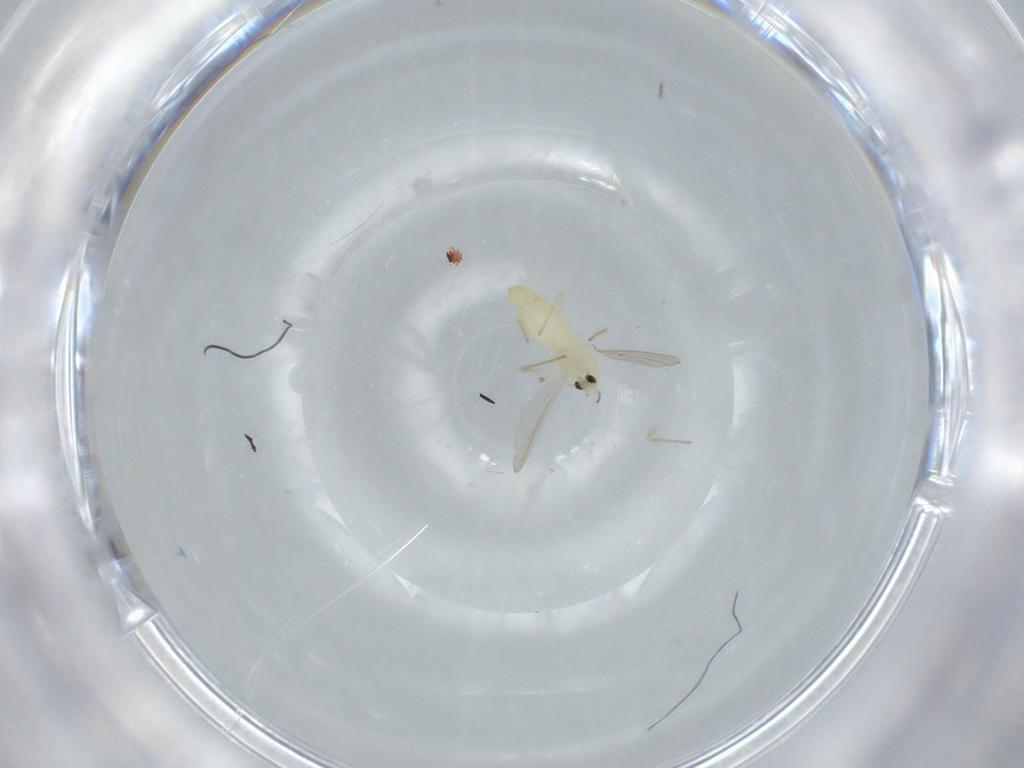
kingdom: Animalia
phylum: Arthropoda
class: Insecta
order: Diptera
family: Chironomidae
